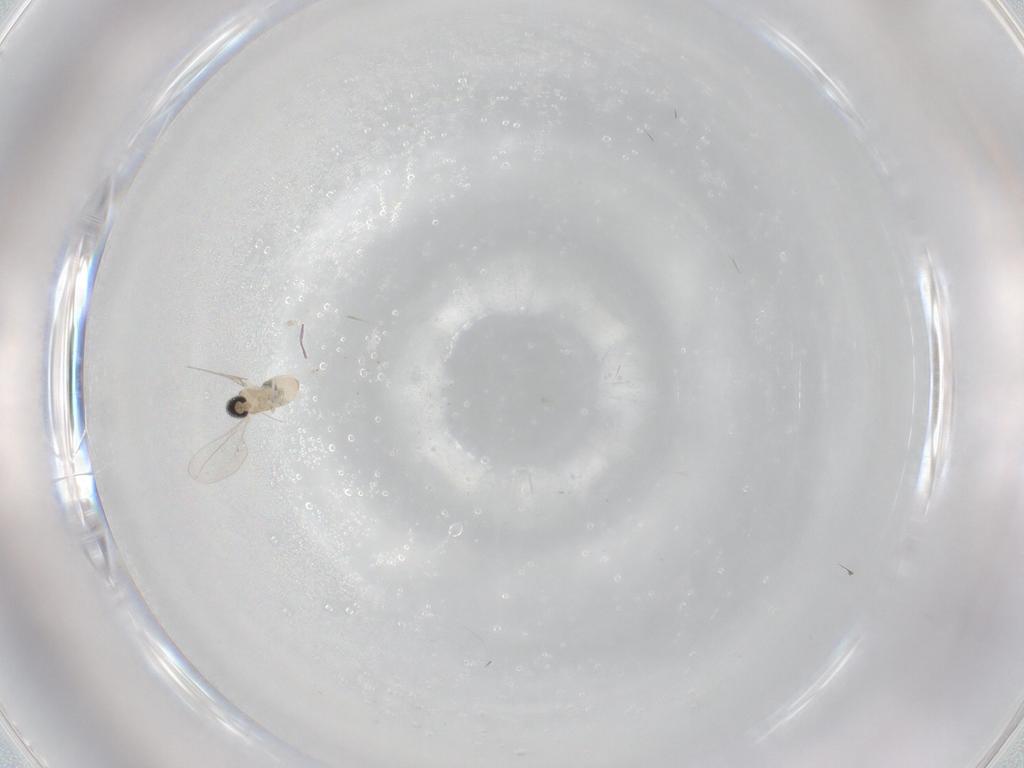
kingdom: Animalia
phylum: Arthropoda
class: Insecta
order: Diptera
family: Cecidomyiidae
